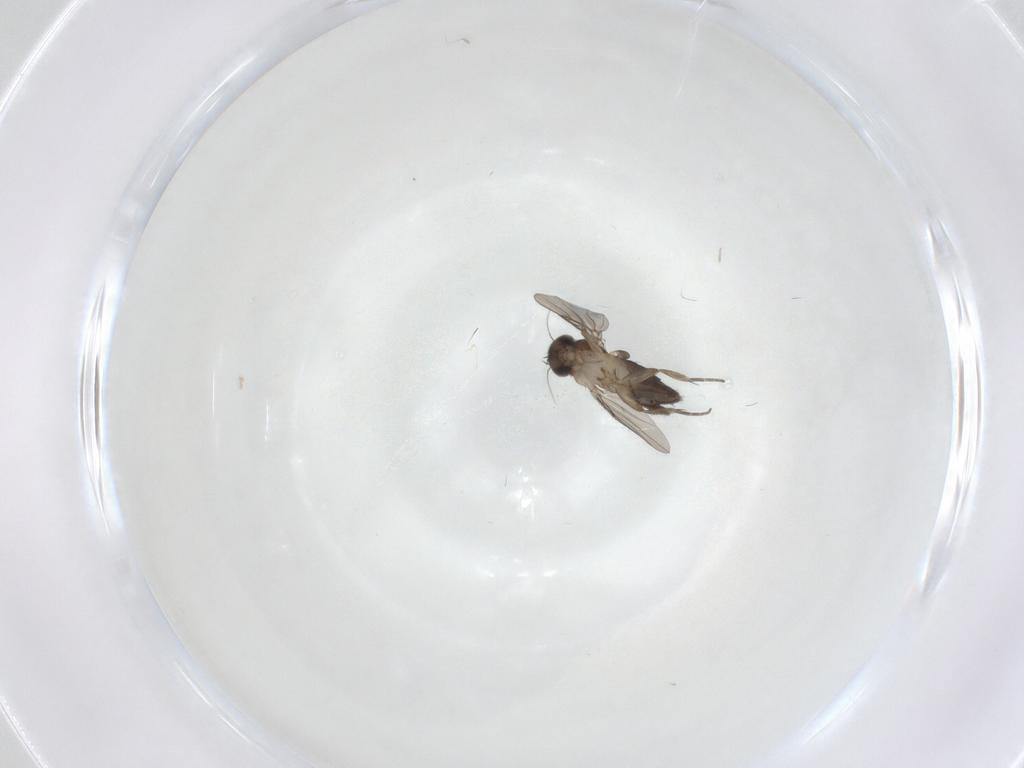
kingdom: Animalia
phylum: Arthropoda
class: Insecta
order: Diptera
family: Phoridae
